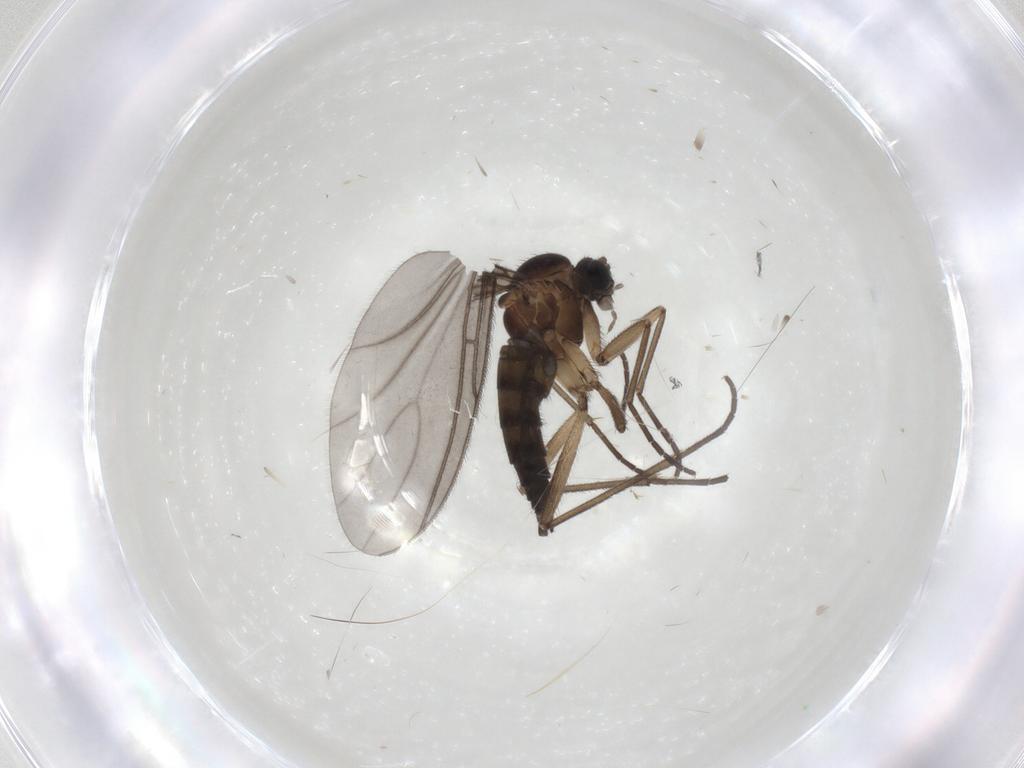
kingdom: Animalia
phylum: Arthropoda
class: Insecta
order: Diptera
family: Sciaridae
